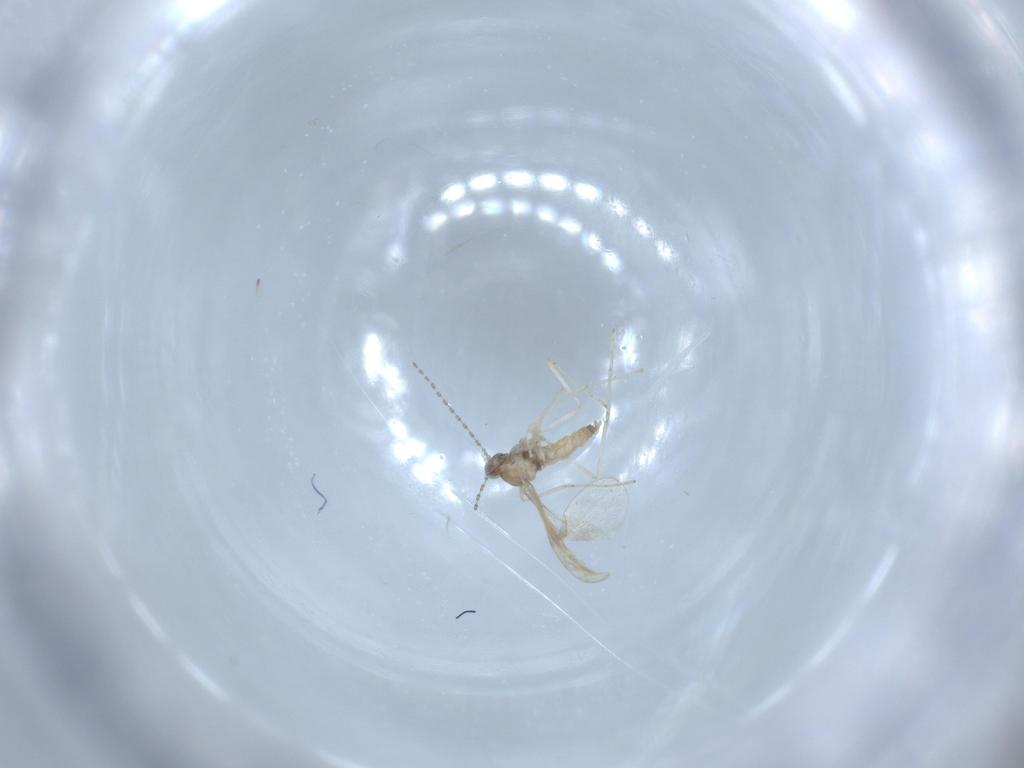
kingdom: Animalia
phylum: Arthropoda
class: Insecta
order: Diptera
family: Cecidomyiidae
